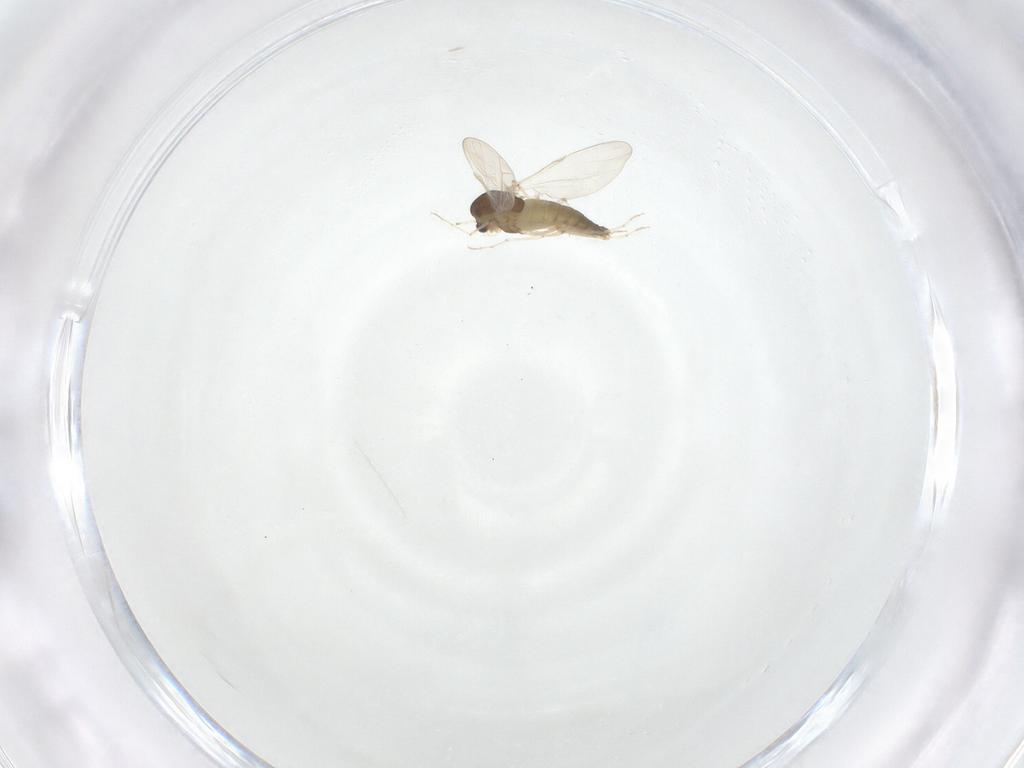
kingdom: Animalia
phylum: Arthropoda
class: Insecta
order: Diptera
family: Chironomidae
